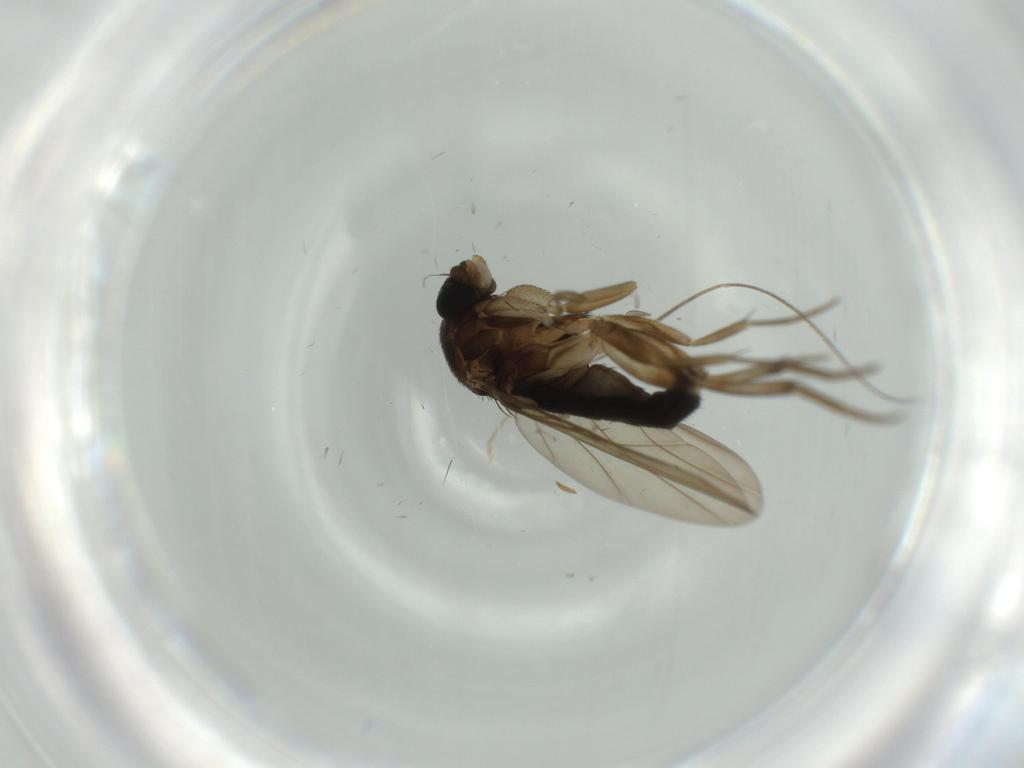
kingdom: Animalia
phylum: Arthropoda
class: Insecta
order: Diptera
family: Phoridae
